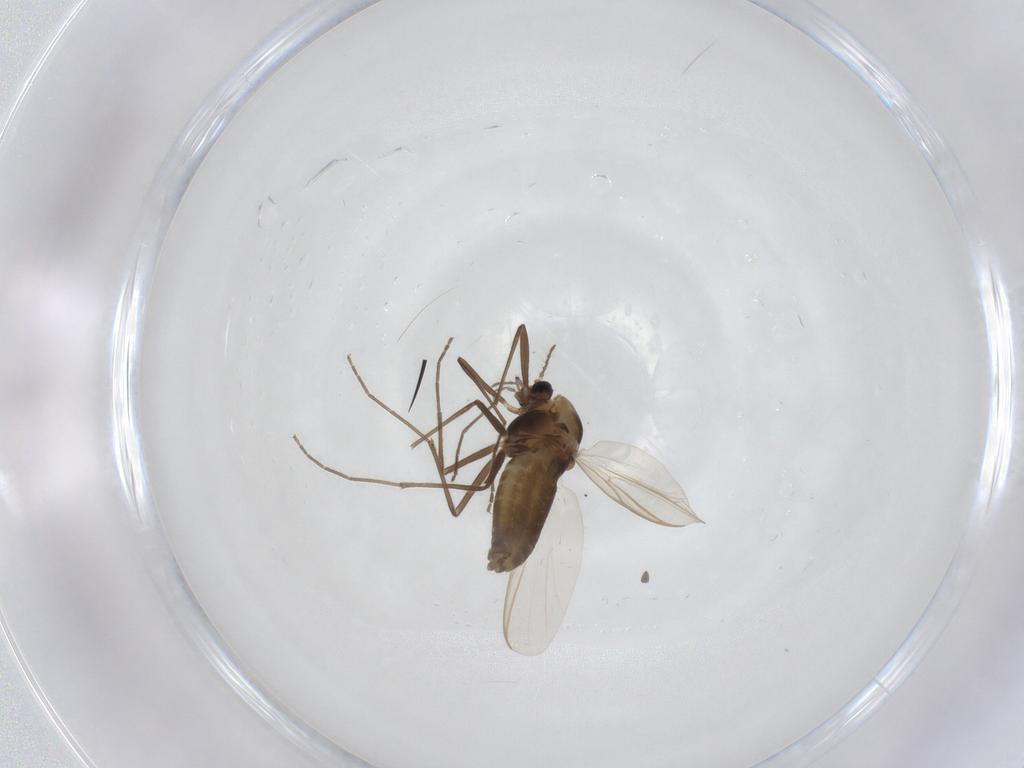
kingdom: Animalia
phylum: Arthropoda
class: Insecta
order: Diptera
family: Chironomidae
